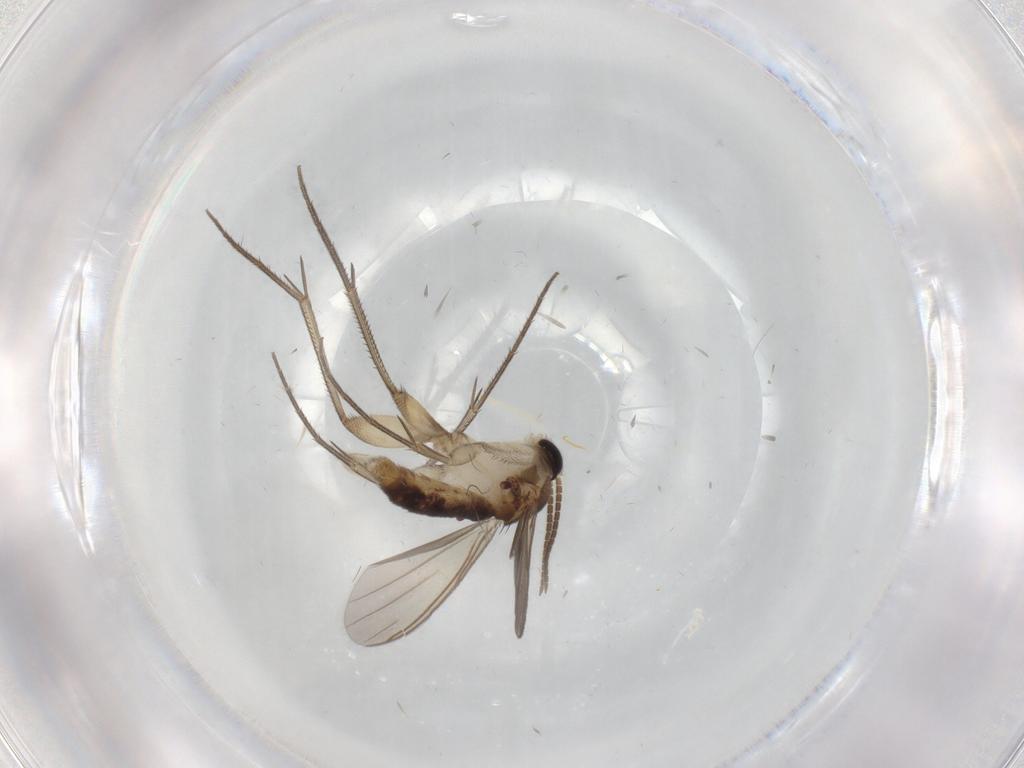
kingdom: Animalia
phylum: Arthropoda
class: Insecta
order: Diptera
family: Mycetophilidae
